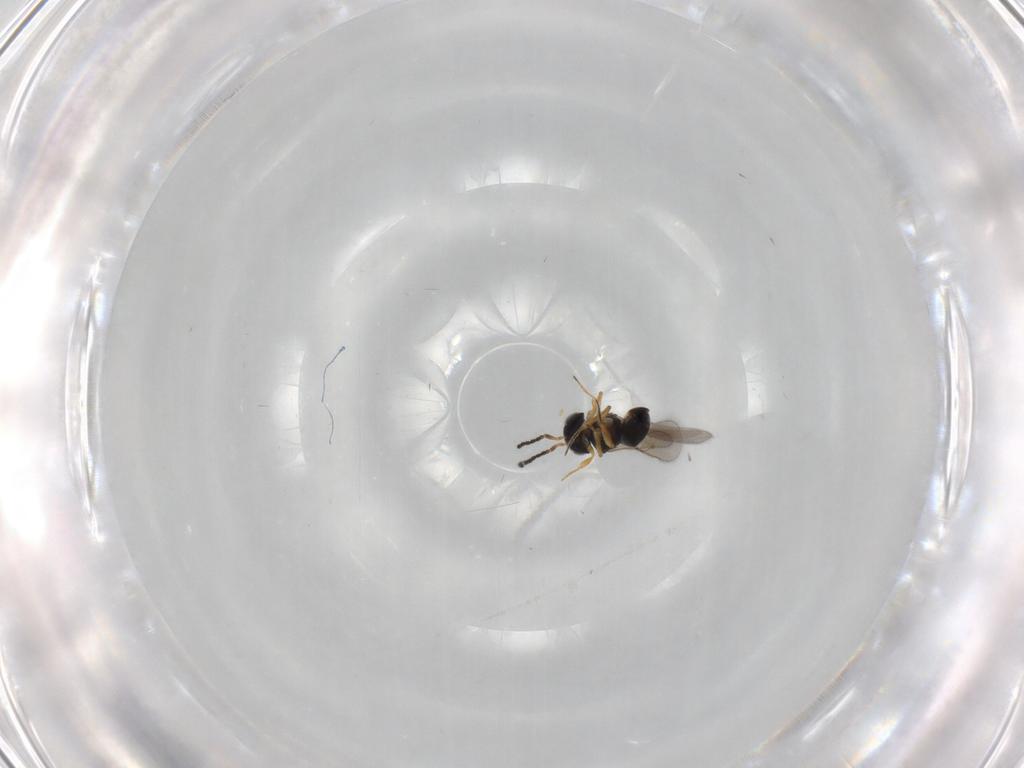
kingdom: Animalia
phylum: Arthropoda
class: Insecta
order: Hymenoptera
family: Scelionidae
